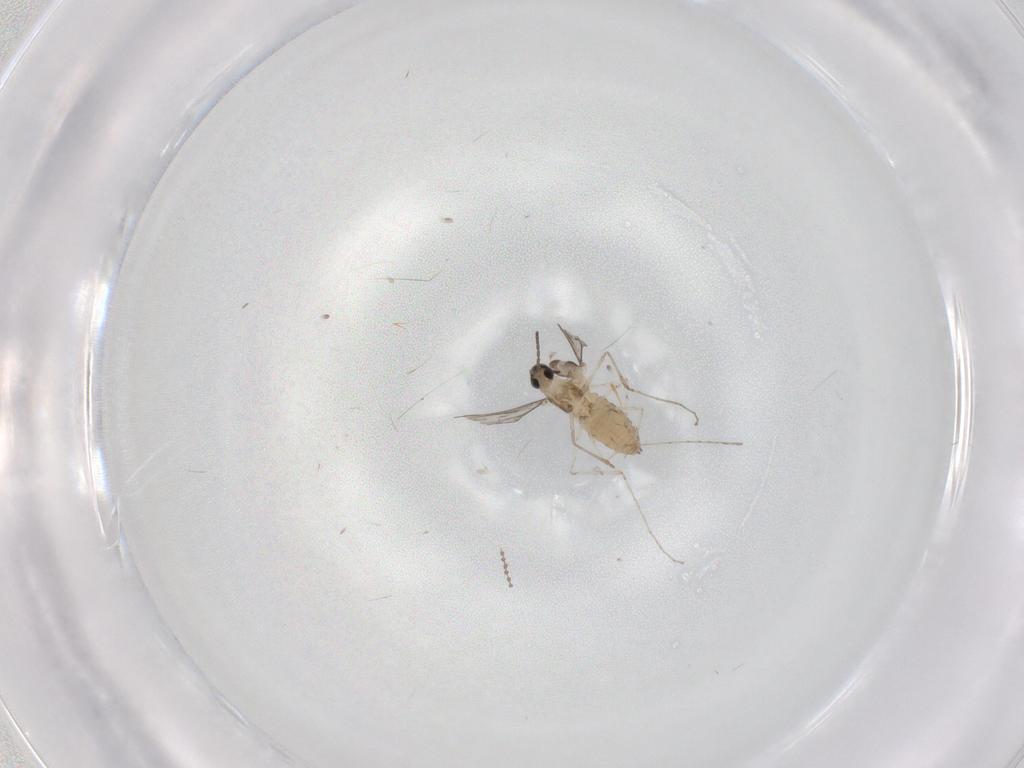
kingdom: Animalia
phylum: Arthropoda
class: Insecta
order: Diptera
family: Cecidomyiidae
